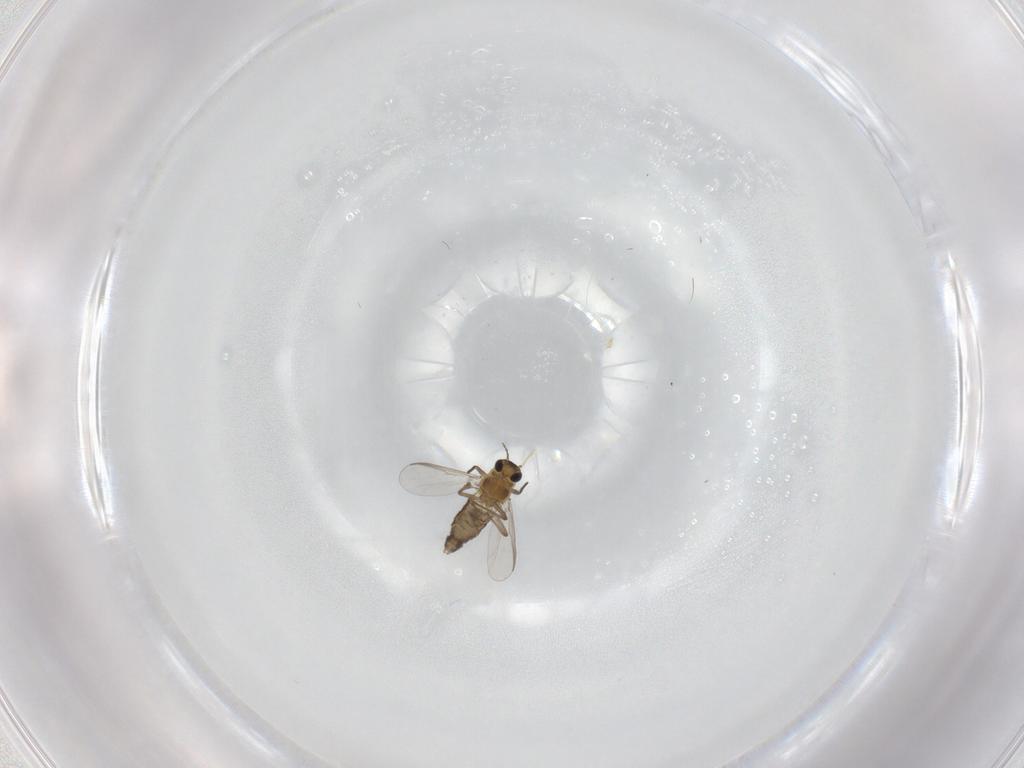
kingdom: Animalia
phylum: Arthropoda
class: Insecta
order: Diptera
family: Chironomidae
